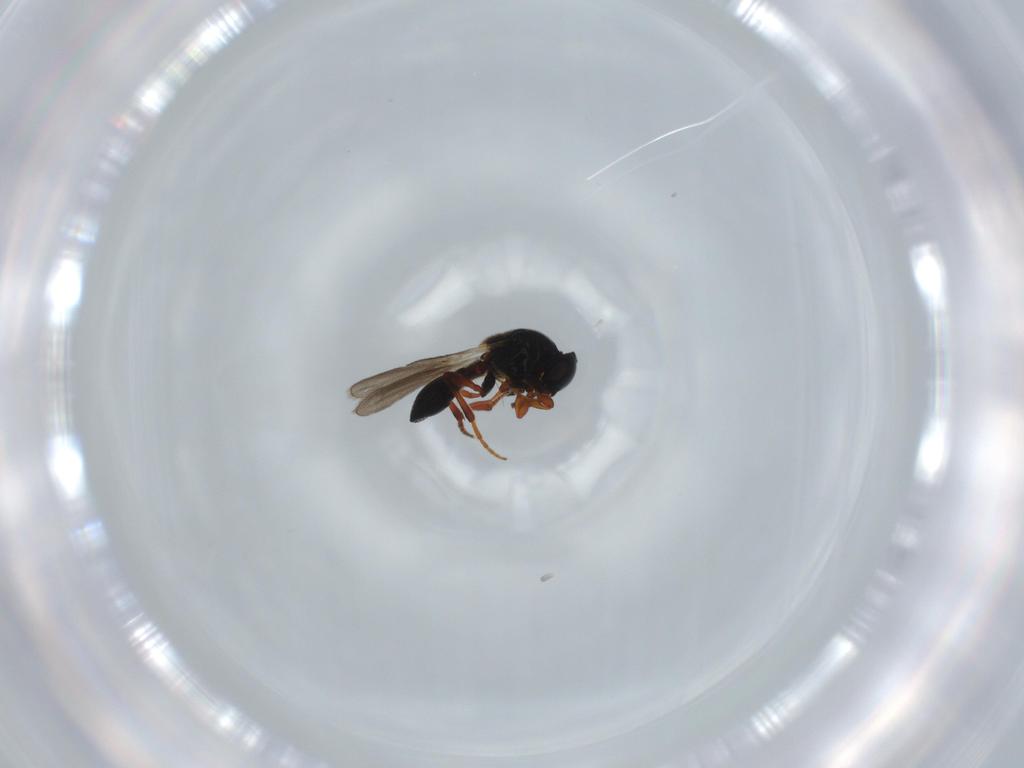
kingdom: Animalia
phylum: Arthropoda
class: Insecta
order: Hymenoptera
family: Platygastridae
